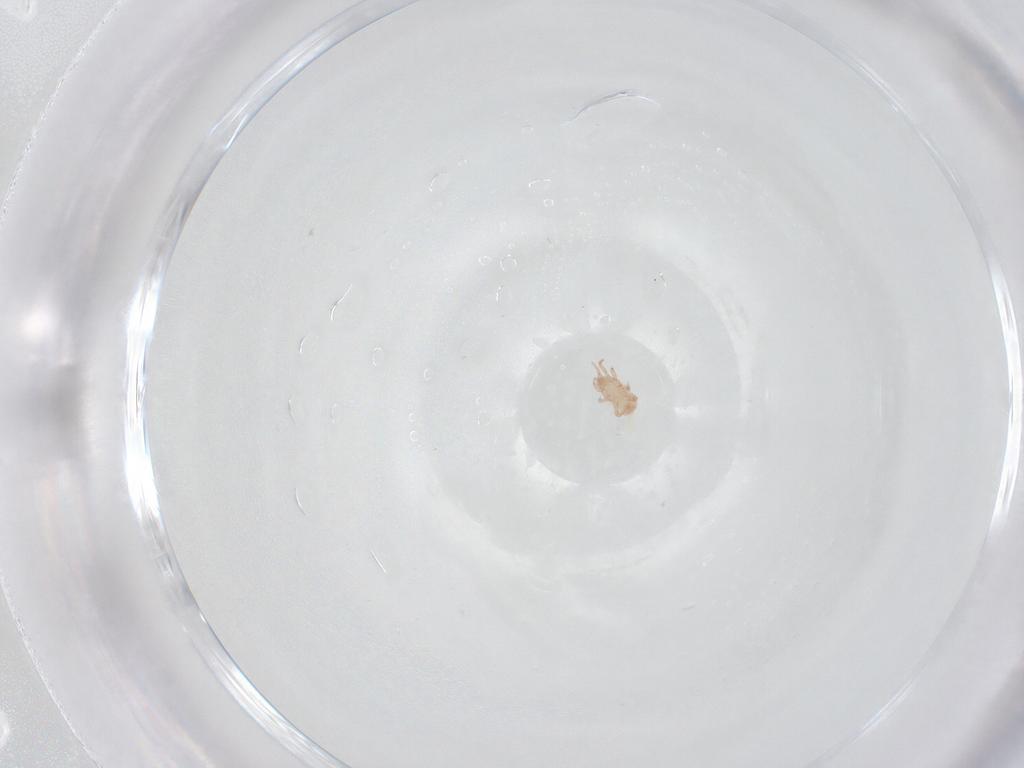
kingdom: Animalia
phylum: Arthropoda
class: Arachnida
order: Mesostigmata
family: Digamasellidae
